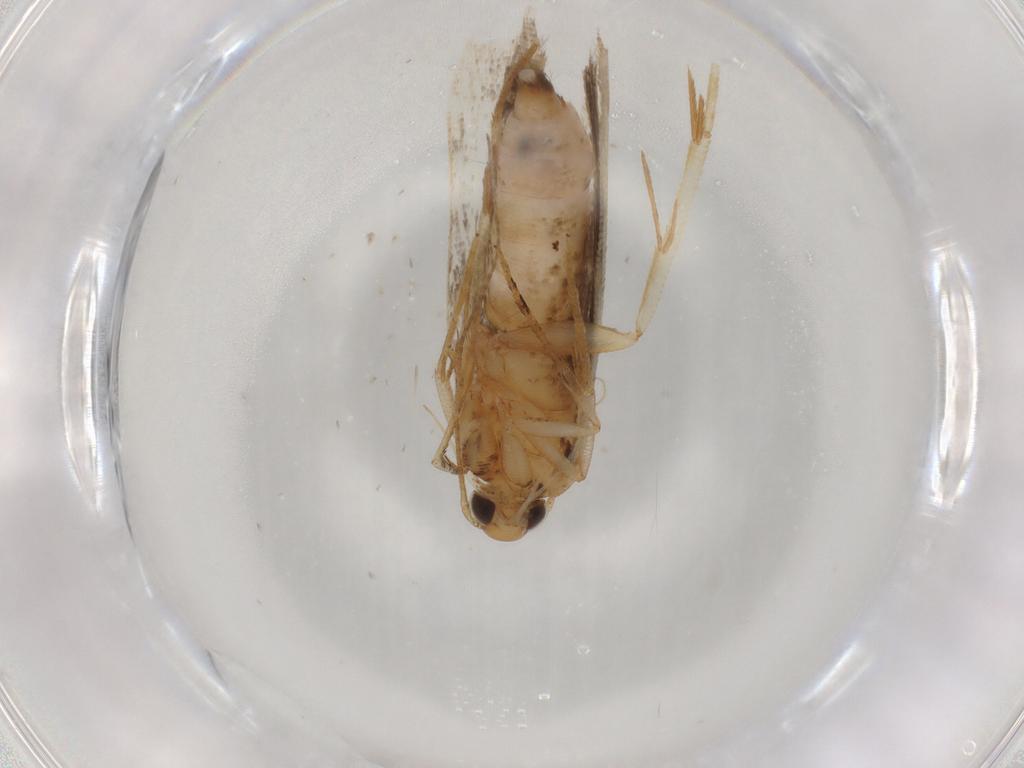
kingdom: Animalia
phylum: Arthropoda
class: Insecta
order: Lepidoptera
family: Gelechiidae
